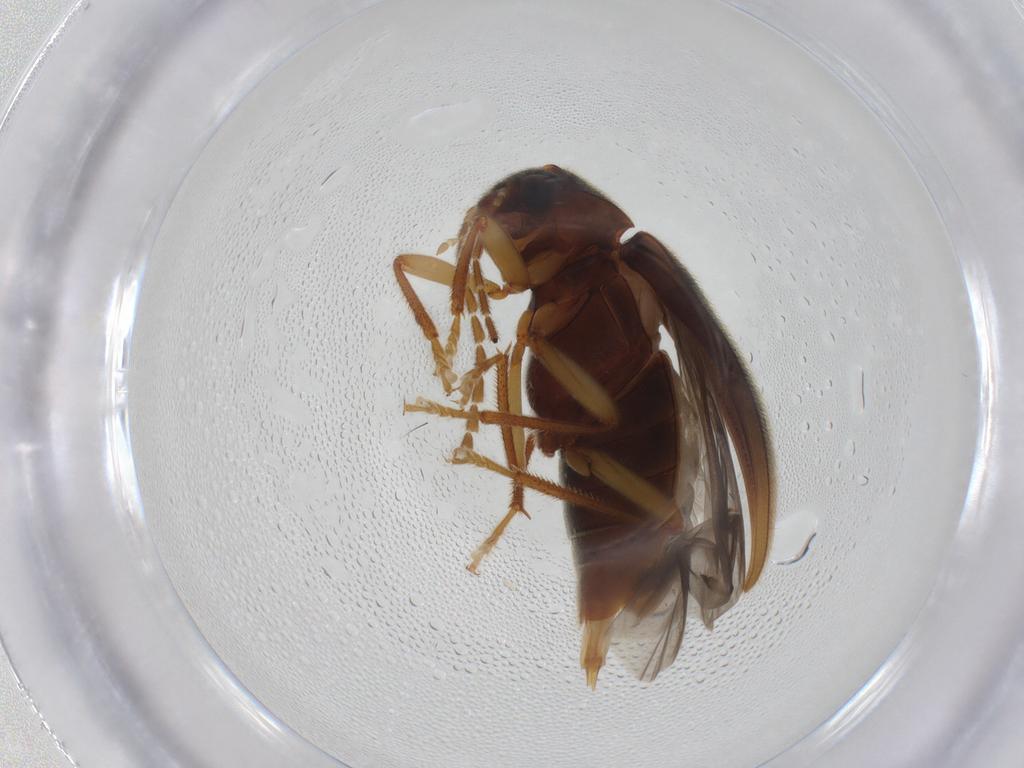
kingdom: Animalia
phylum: Arthropoda
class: Insecta
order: Coleoptera
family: Ptilodactylidae
